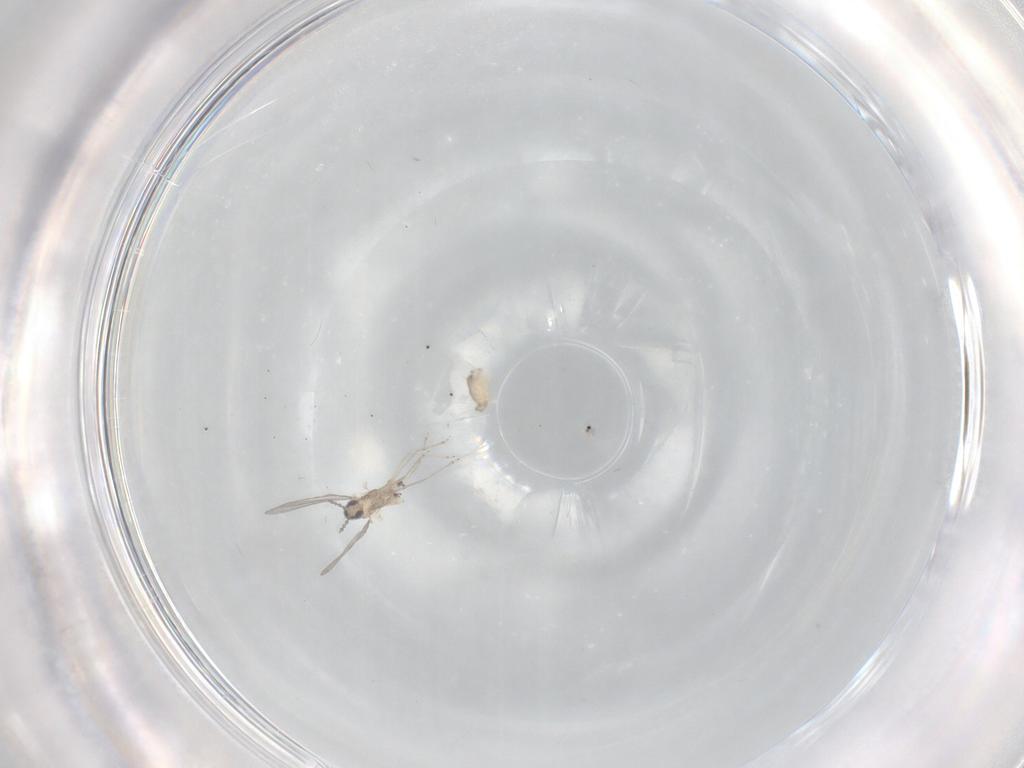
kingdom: Animalia
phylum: Arthropoda
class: Insecta
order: Diptera
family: Cecidomyiidae
